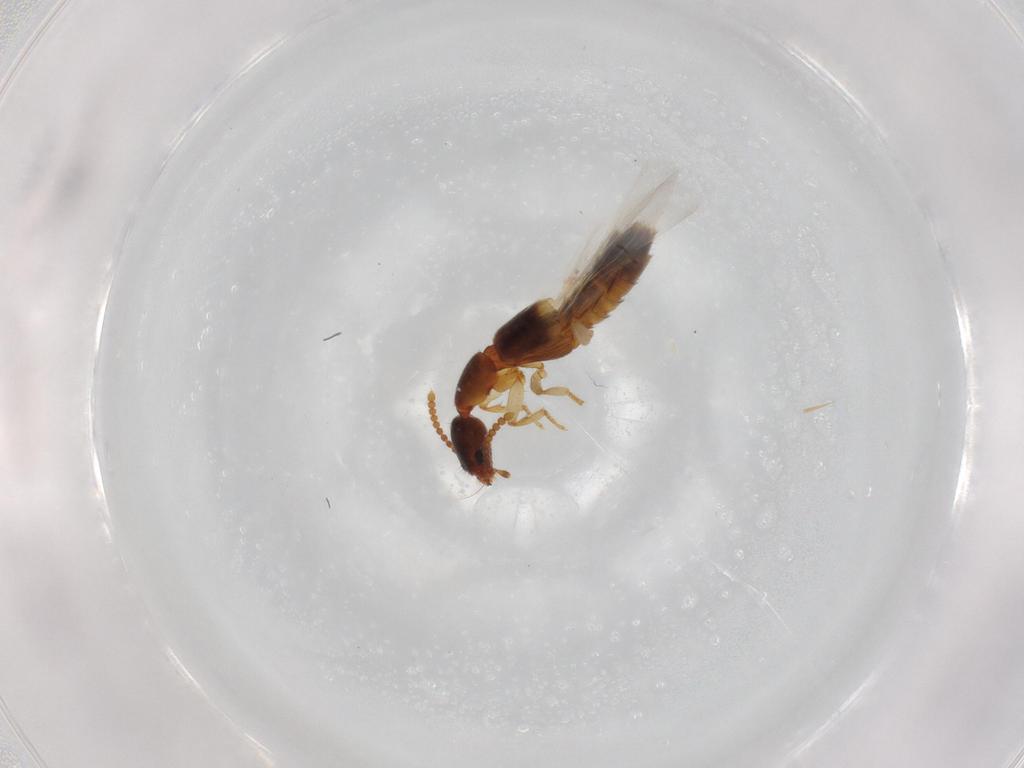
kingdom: Animalia
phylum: Arthropoda
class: Insecta
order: Coleoptera
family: Staphylinidae
